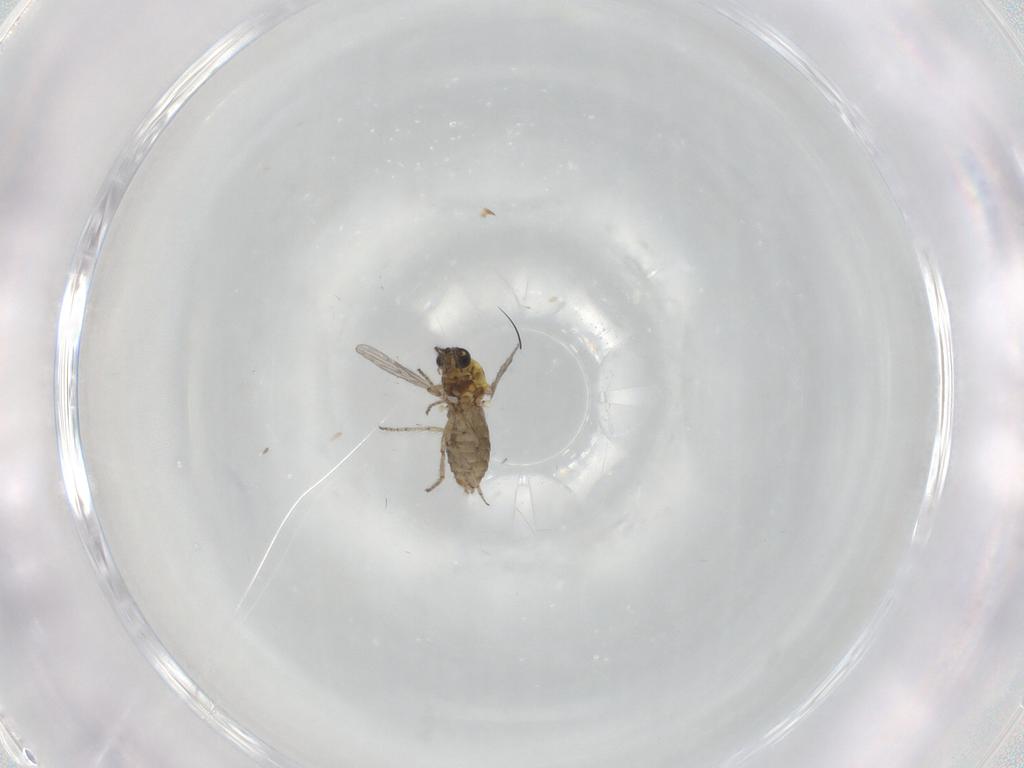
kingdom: Animalia
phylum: Arthropoda
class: Insecta
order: Diptera
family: Ceratopogonidae
